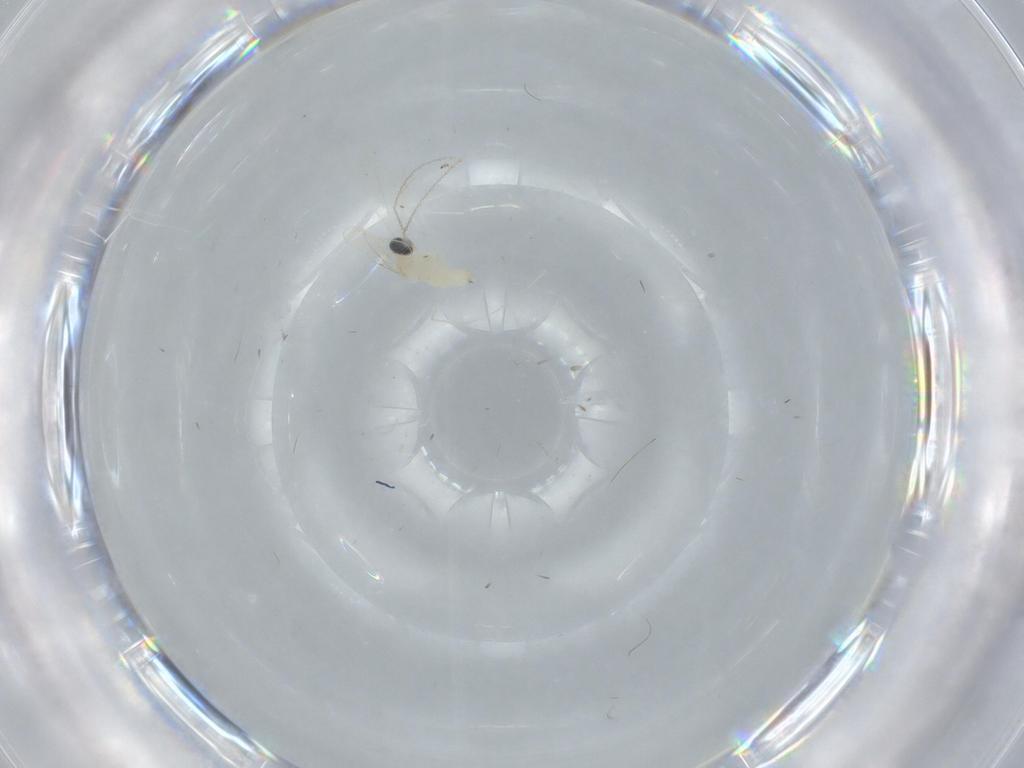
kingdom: Animalia
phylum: Arthropoda
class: Insecta
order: Diptera
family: Cecidomyiidae
